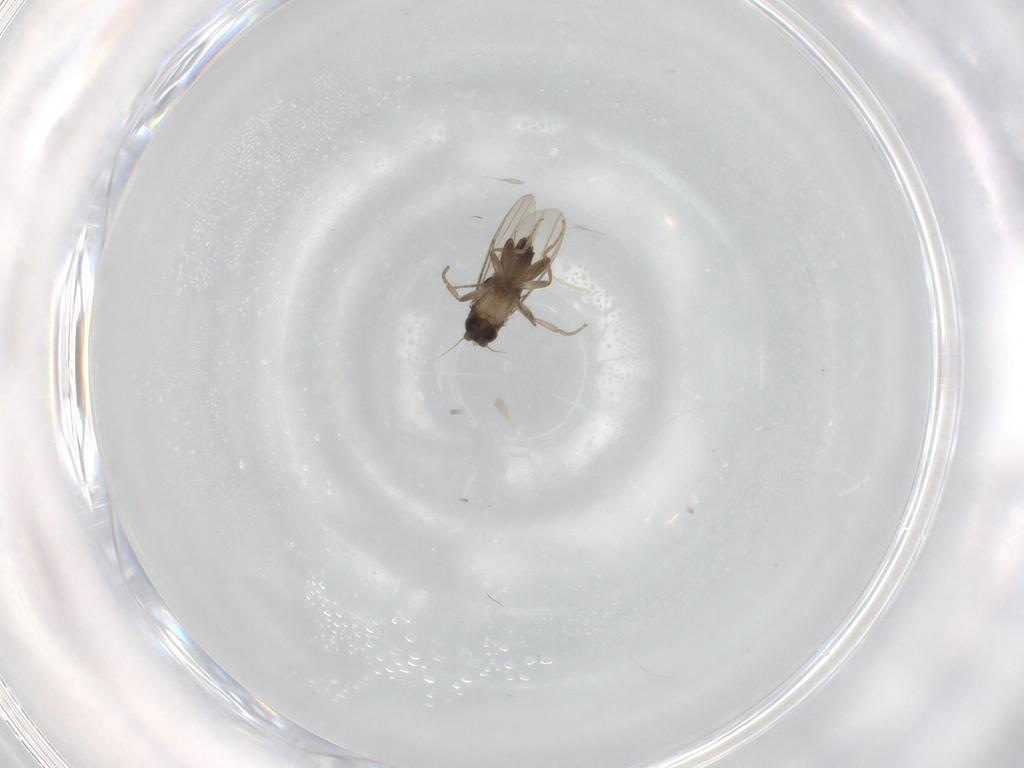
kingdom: Animalia
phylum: Arthropoda
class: Insecta
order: Diptera
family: Phoridae
